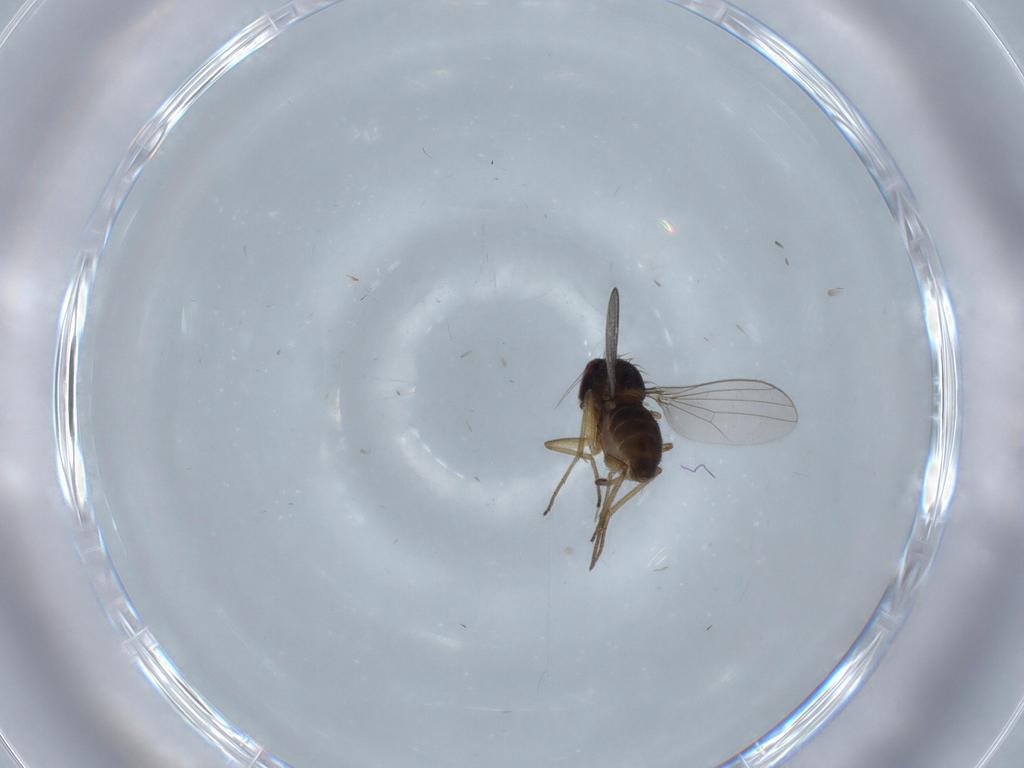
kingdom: Animalia
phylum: Arthropoda
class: Insecta
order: Diptera
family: Dolichopodidae
